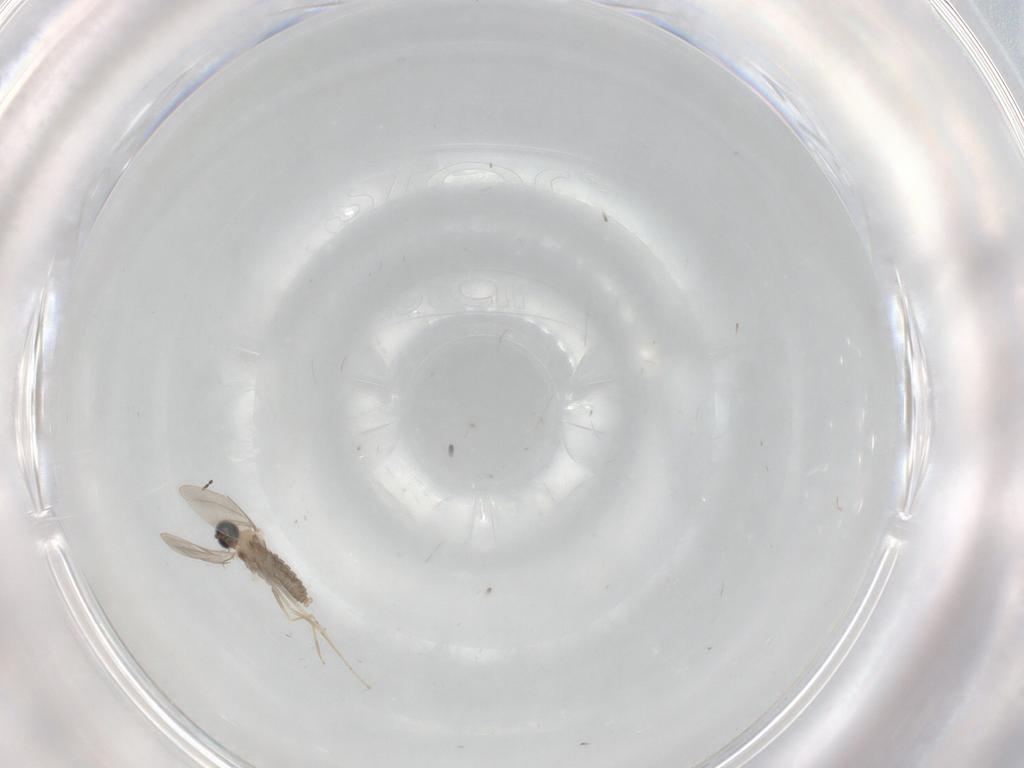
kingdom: Animalia
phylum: Arthropoda
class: Insecta
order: Diptera
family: Cecidomyiidae
